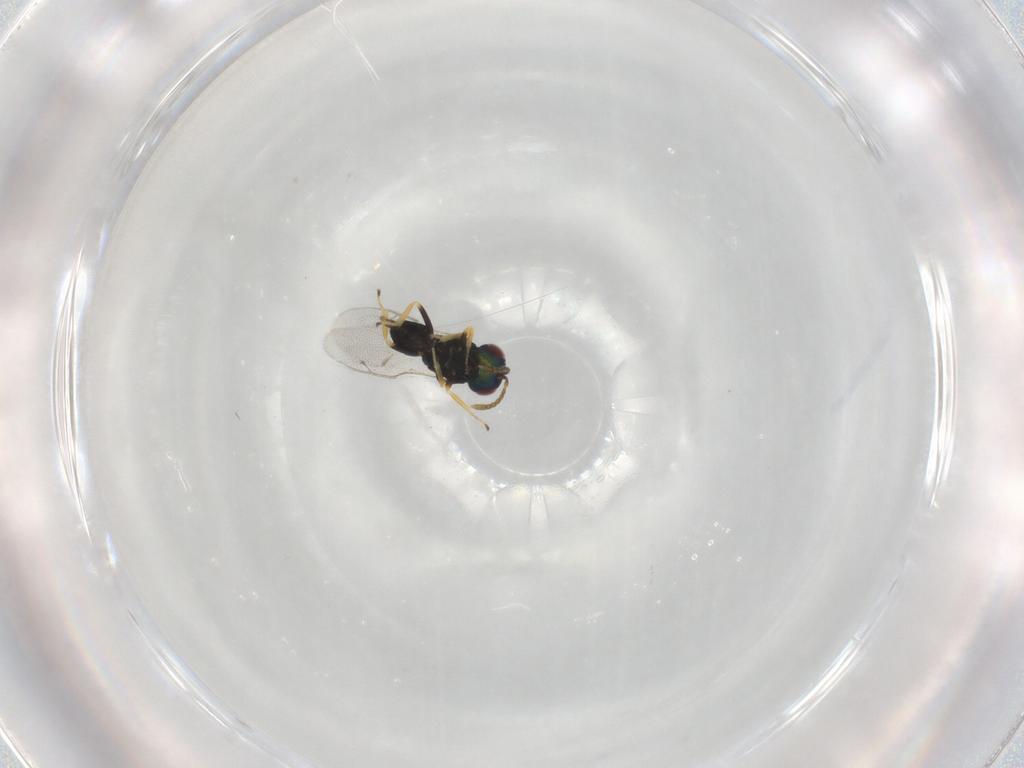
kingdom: Animalia
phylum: Arthropoda
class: Insecta
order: Hymenoptera
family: Pteromalidae
